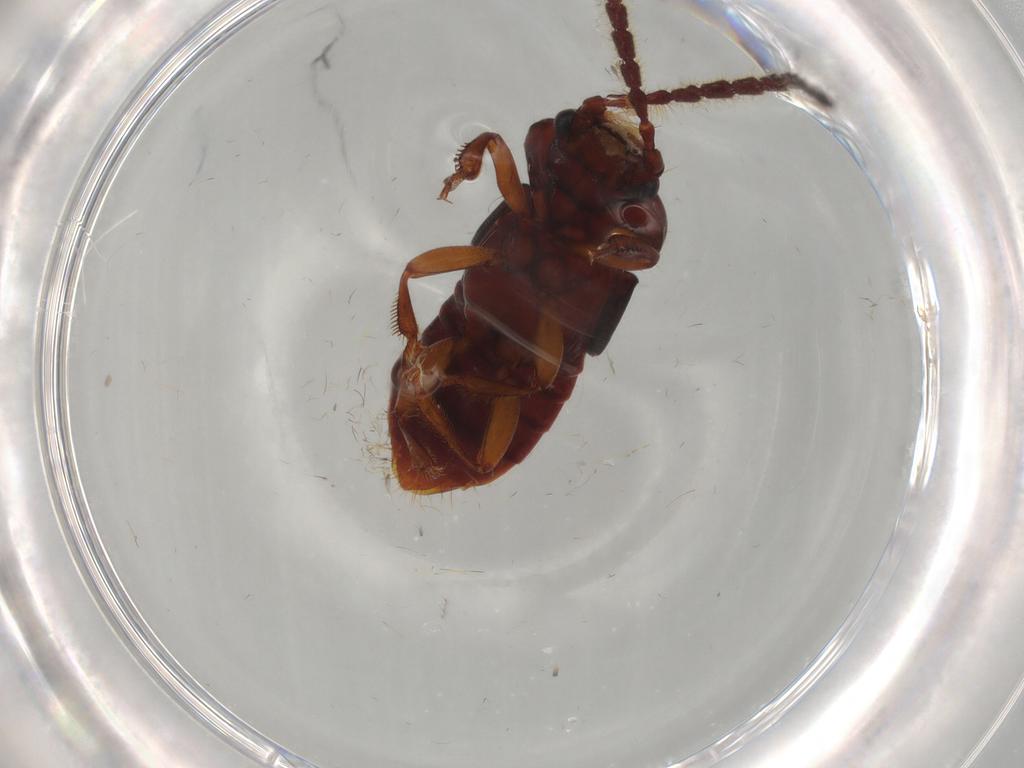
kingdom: Animalia
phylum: Arthropoda
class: Insecta
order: Coleoptera
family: Staphylinidae
